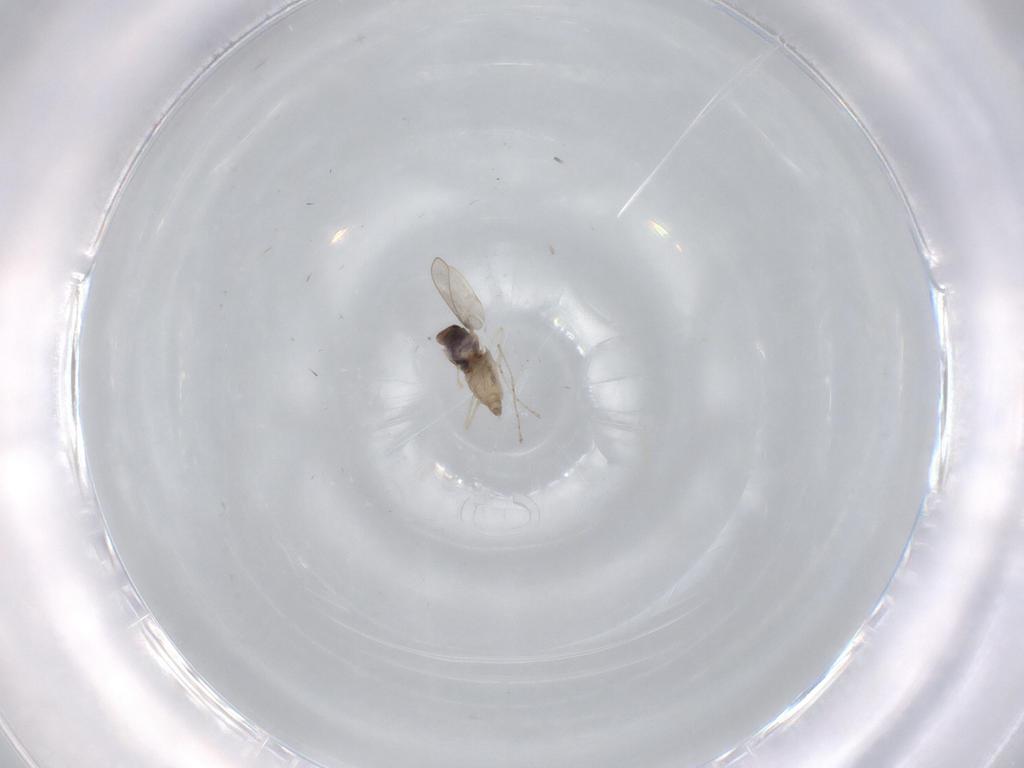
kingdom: Animalia
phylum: Arthropoda
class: Insecta
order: Diptera
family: Cecidomyiidae
